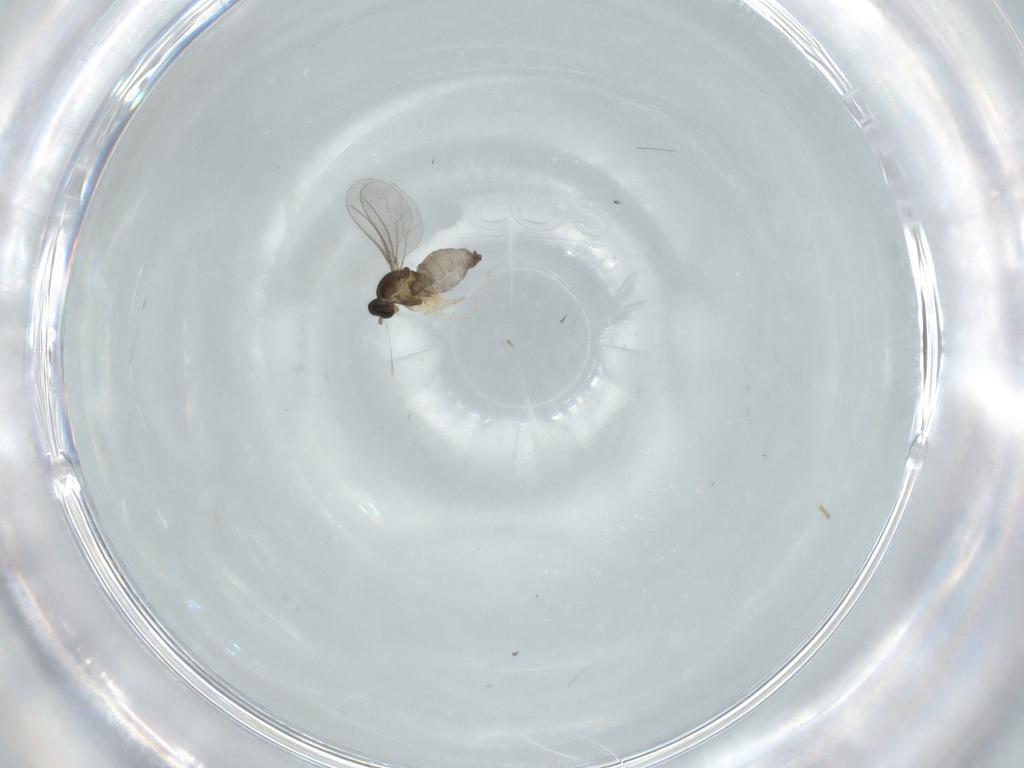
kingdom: Animalia
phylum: Arthropoda
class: Insecta
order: Diptera
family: Cecidomyiidae
